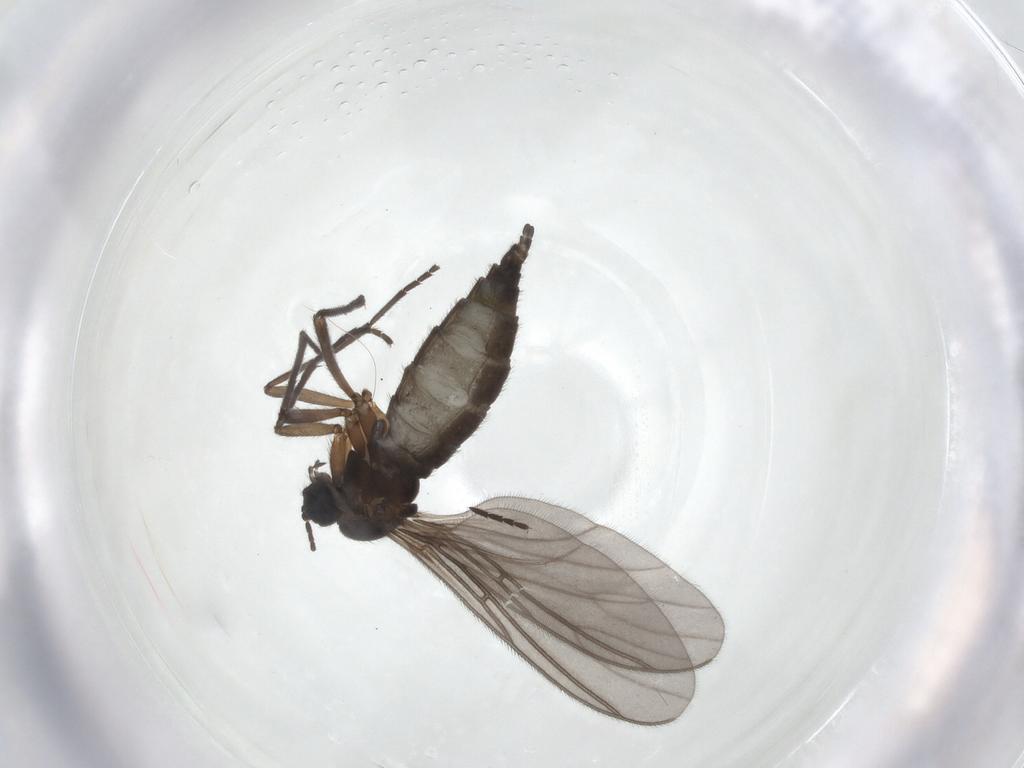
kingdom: Animalia
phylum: Arthropoda
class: Insecta
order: Diptera
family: Sciaridae
